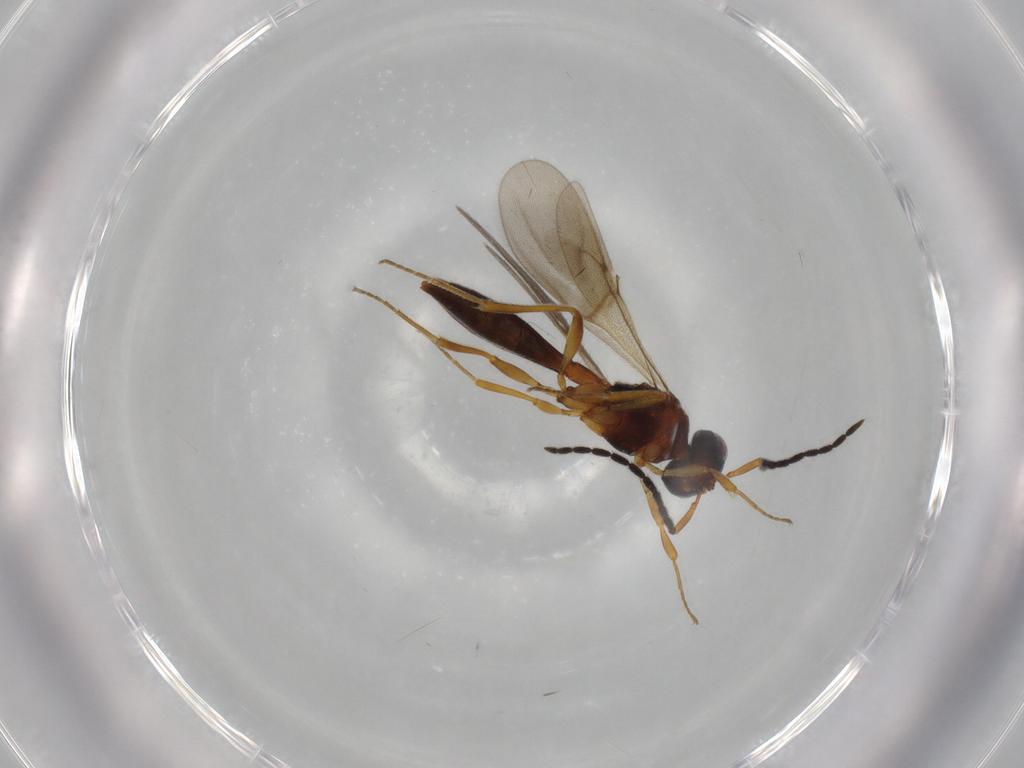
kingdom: Animalia
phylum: Arthropoda
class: Insecta
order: Hymenoptera
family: Scelionidae
